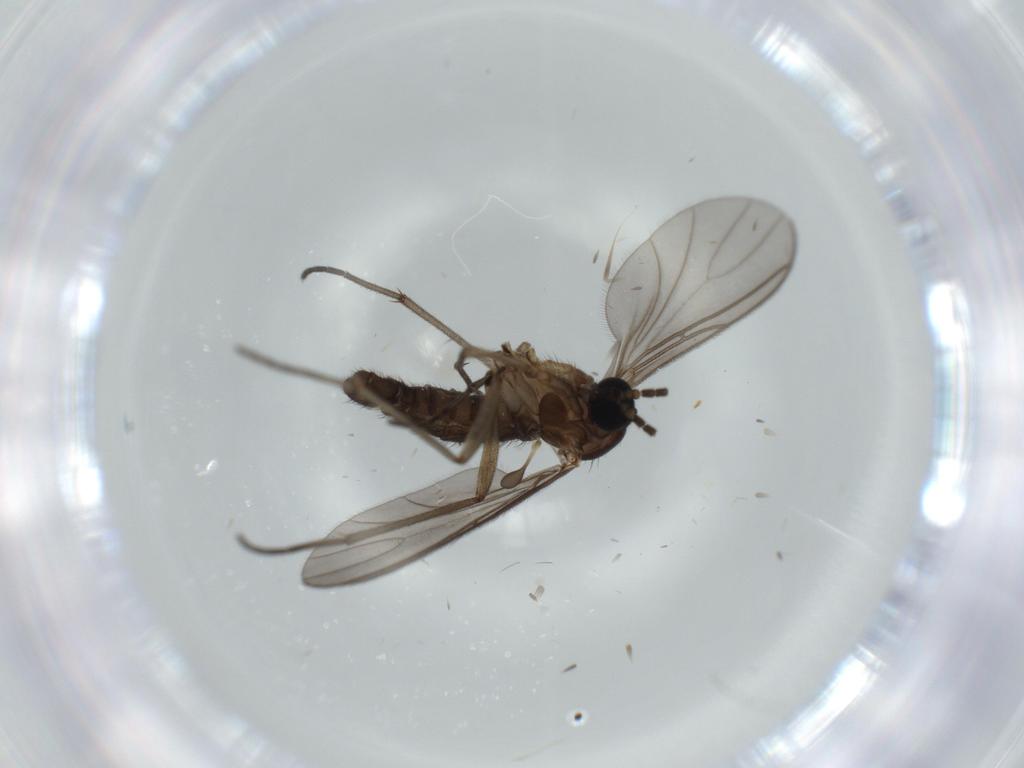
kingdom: Animalia
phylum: Arthropoda
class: Insecta
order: Diptera
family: Sciaridae
